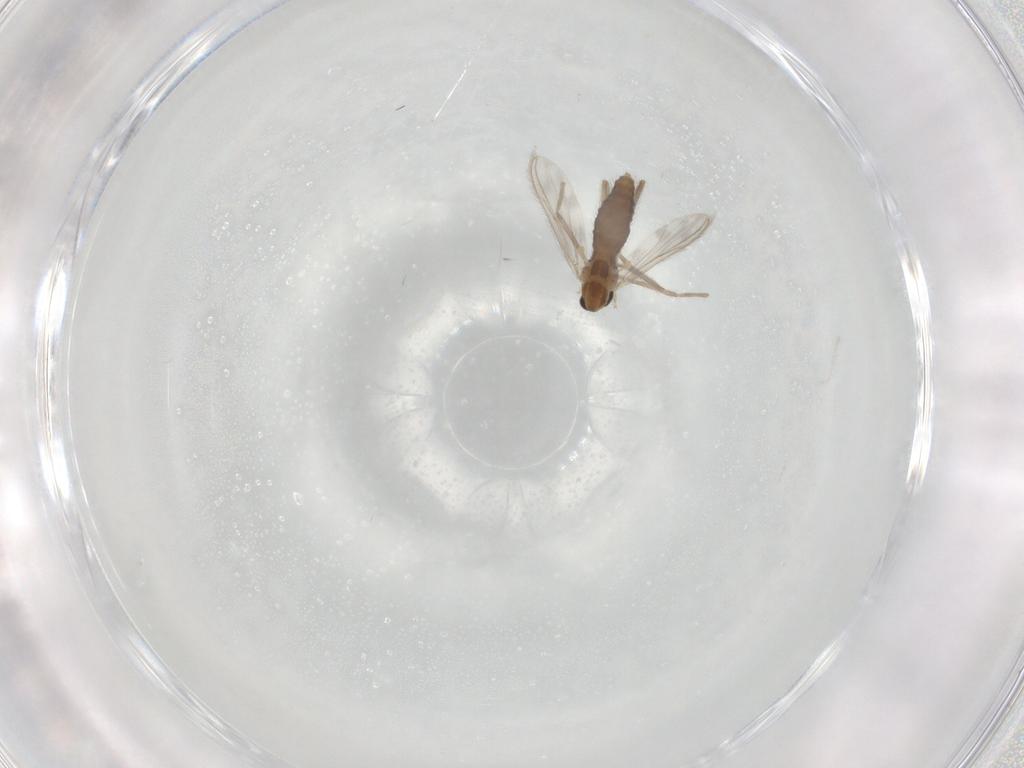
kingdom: Animalia
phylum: Arthropoda
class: Insecta
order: Diptera
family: Chironomidae
